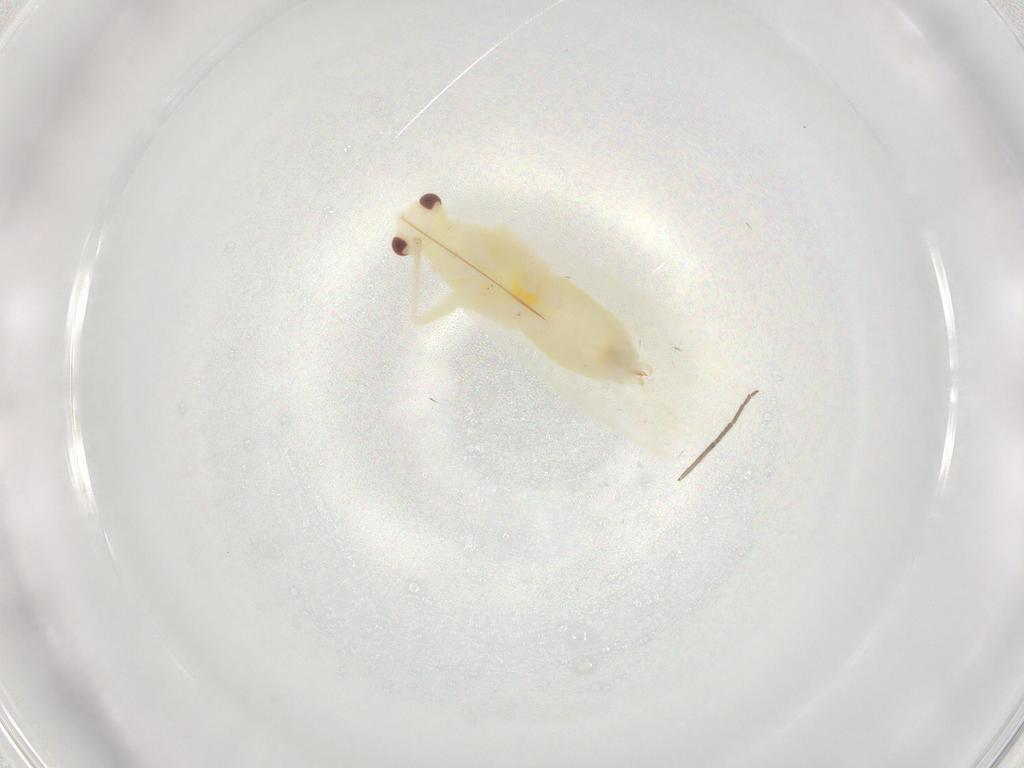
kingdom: Animalia
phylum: Arthropoda
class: Insecta
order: Hemiptera
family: Miridae
